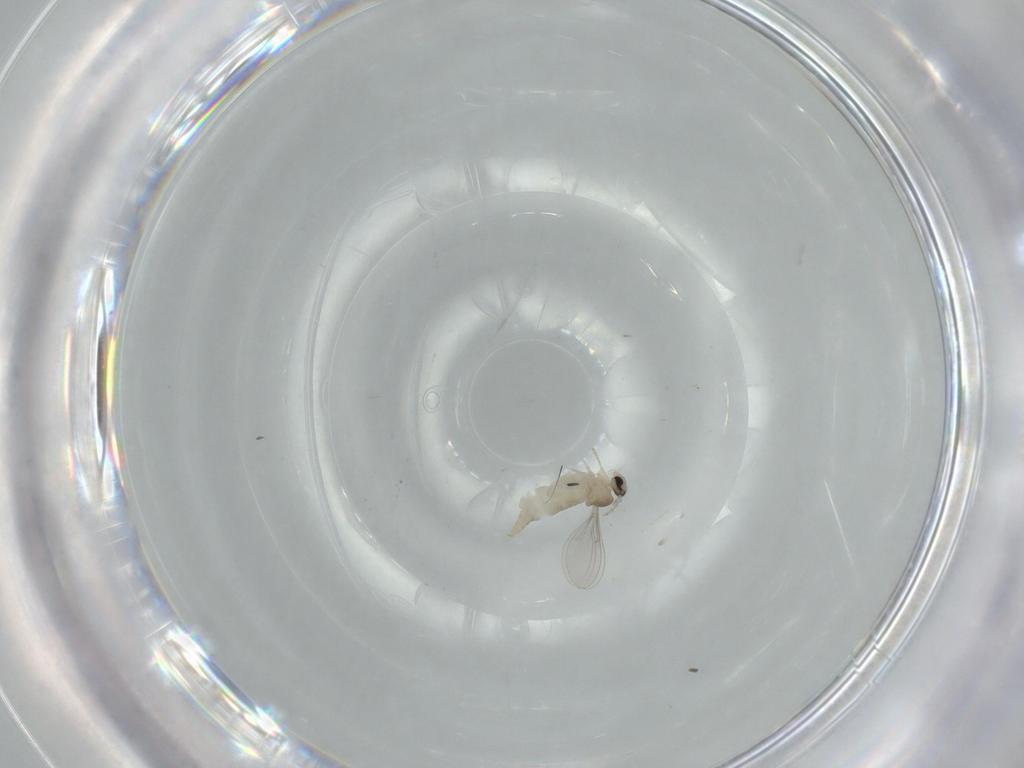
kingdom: Animalia
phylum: Arthropoda
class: Insecta
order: Diptera
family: Cecidomyiidae
